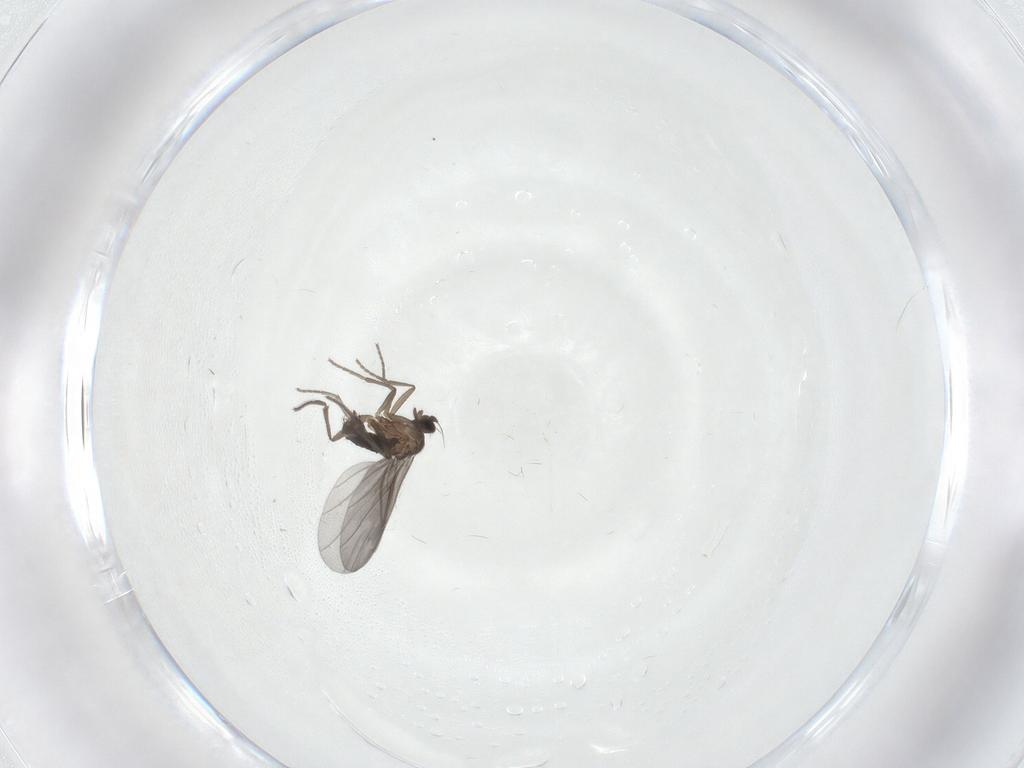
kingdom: Animalia
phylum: Arthropoda
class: Insecta
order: Diptera
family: Phoridae
